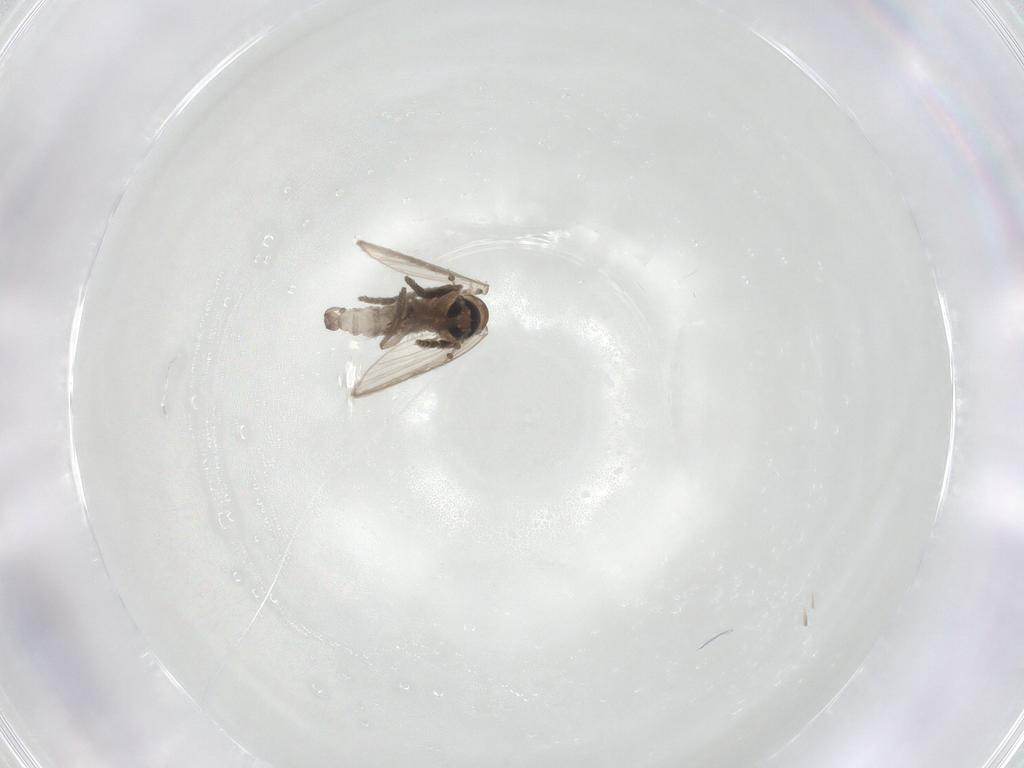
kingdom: Animalia
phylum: Arthropoda
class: Insecta
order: Diptera
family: Psychodidae
